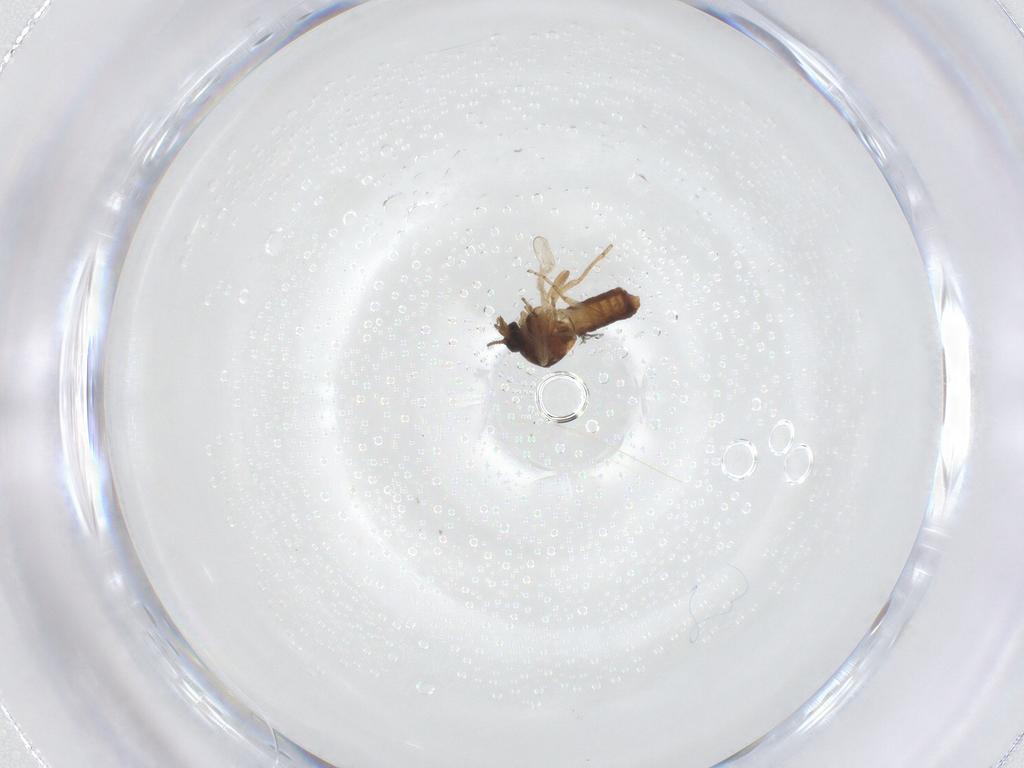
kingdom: Animalia
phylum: Arthropoda
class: Insecta
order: Diptera
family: Ceratopogonidae
